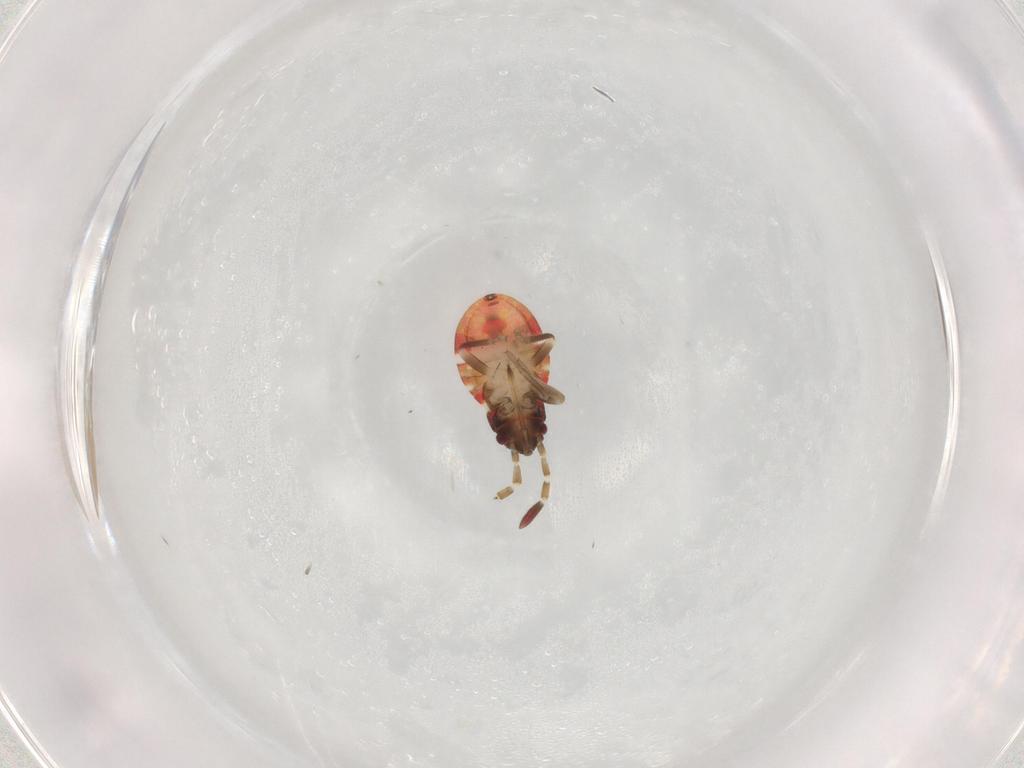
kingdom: Animalia
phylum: Arthropoda
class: Insecta
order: Hemiptera
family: Rhyparochromidae
